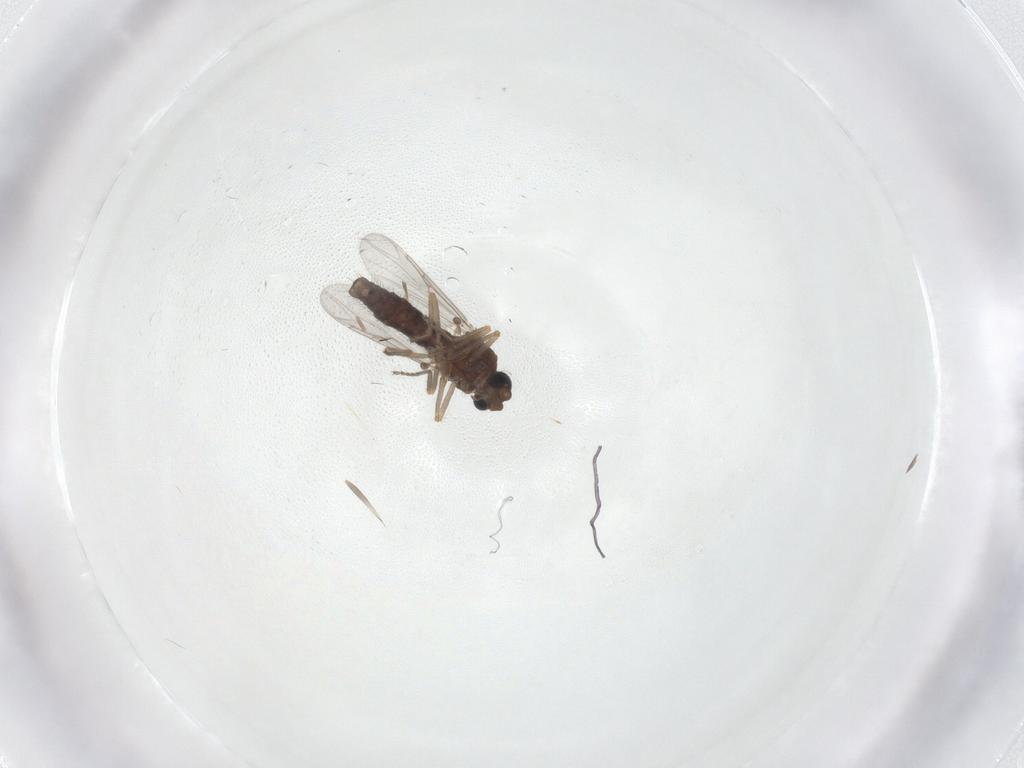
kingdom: Animalia
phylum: Arthropoda
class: Insecta
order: Diptera
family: Ceratopogonidae
